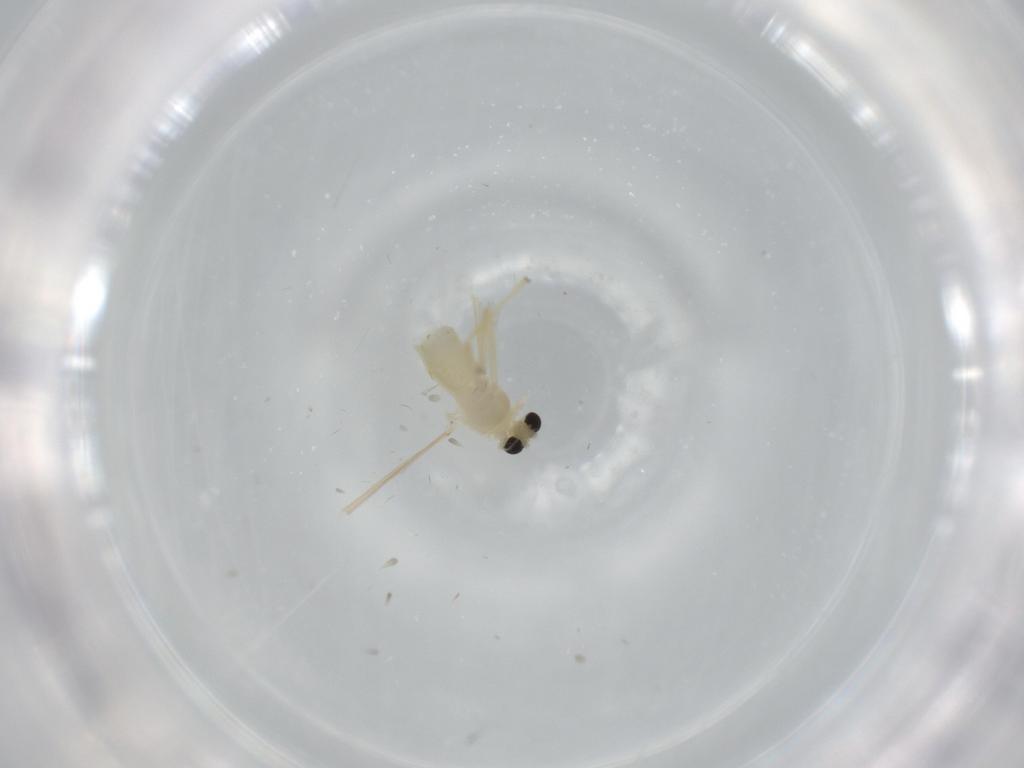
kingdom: Animalia
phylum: Arthropoda
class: Insecta
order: Diptera
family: Chironomidae
